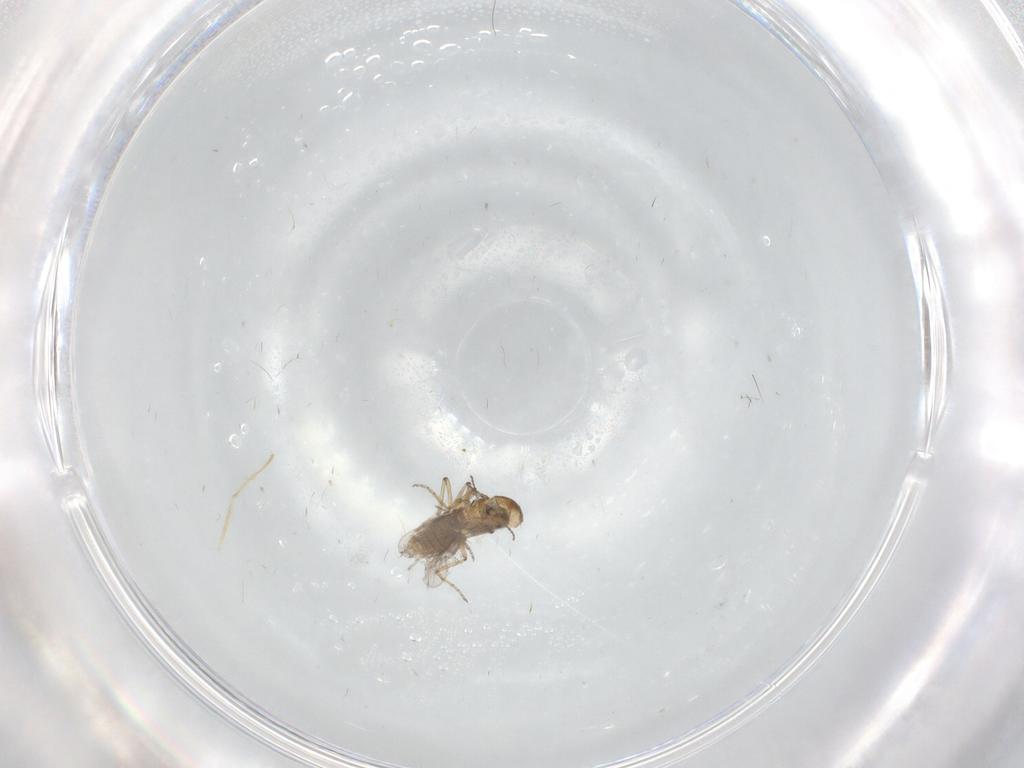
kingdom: Animalia
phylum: Arthropoda
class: Insecta
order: Diptera
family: Ceratopogonidae
